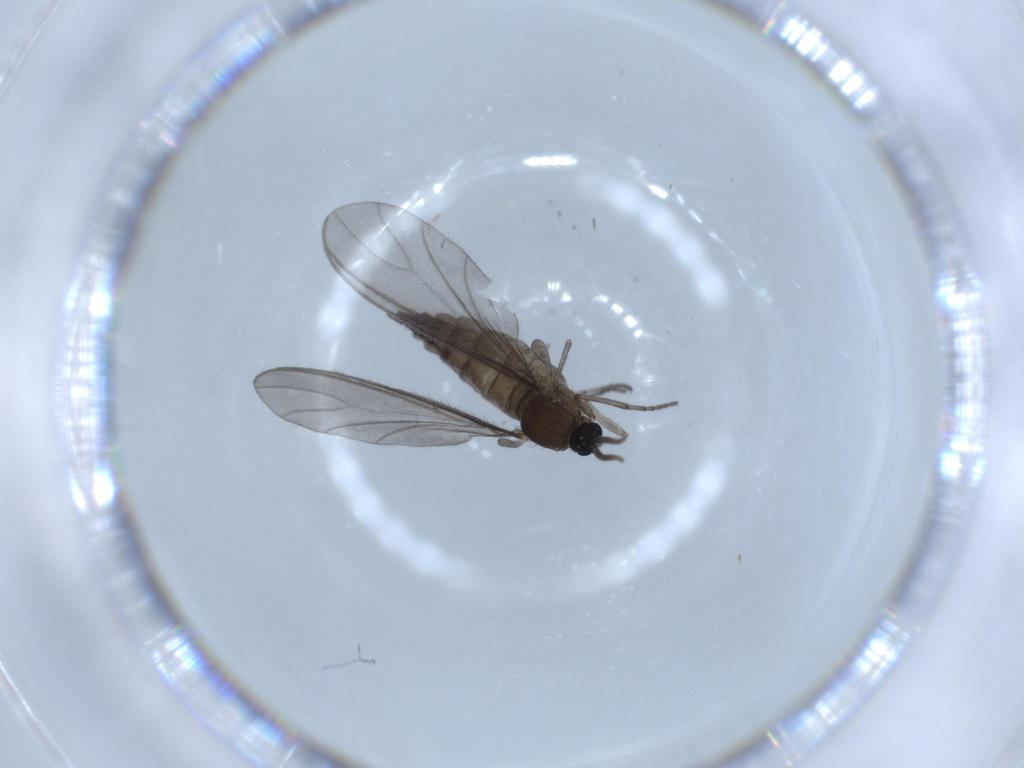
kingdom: Animalia
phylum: Arthropoda
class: Insecta
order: Diptera
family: Sciaridae
